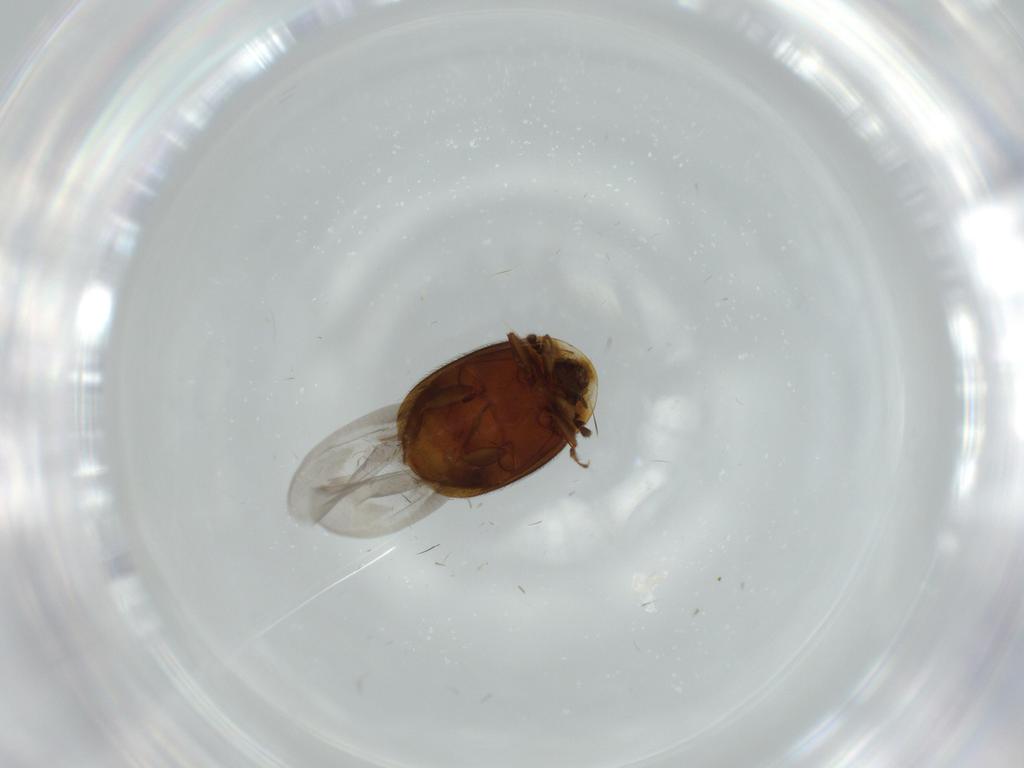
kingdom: Animalia
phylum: Arthropoda
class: Insecta
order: Coleoptera
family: Corylophidae
